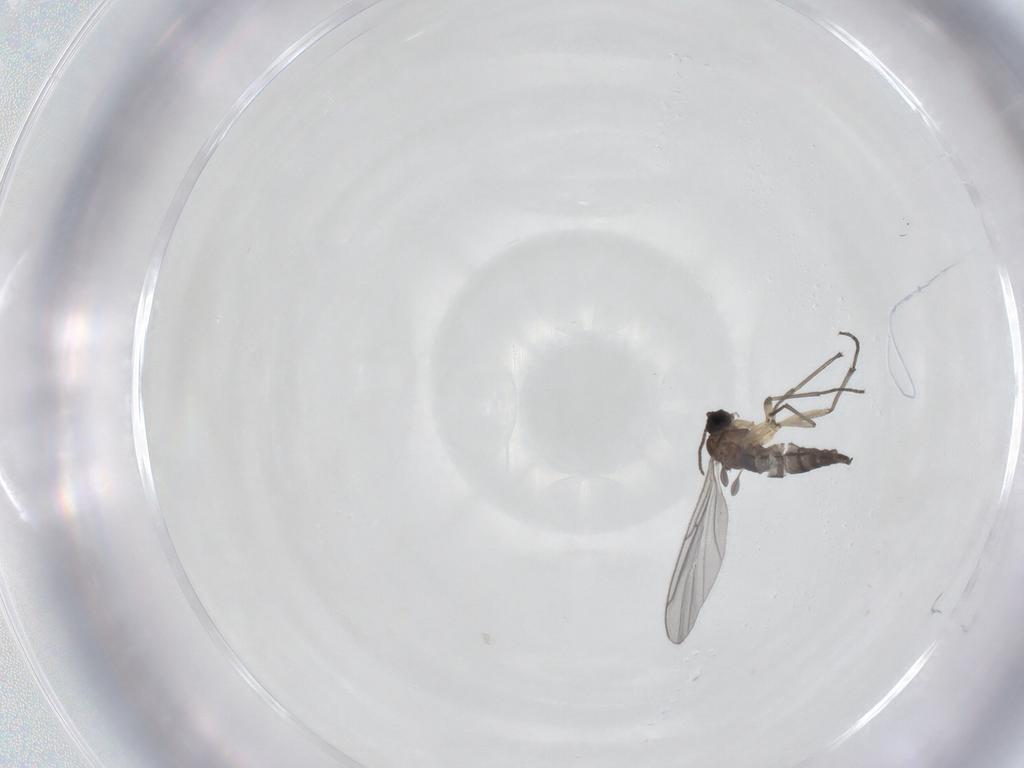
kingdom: Animalia
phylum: Arthropoda
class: Insecta
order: Diptera
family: Sciaridae
